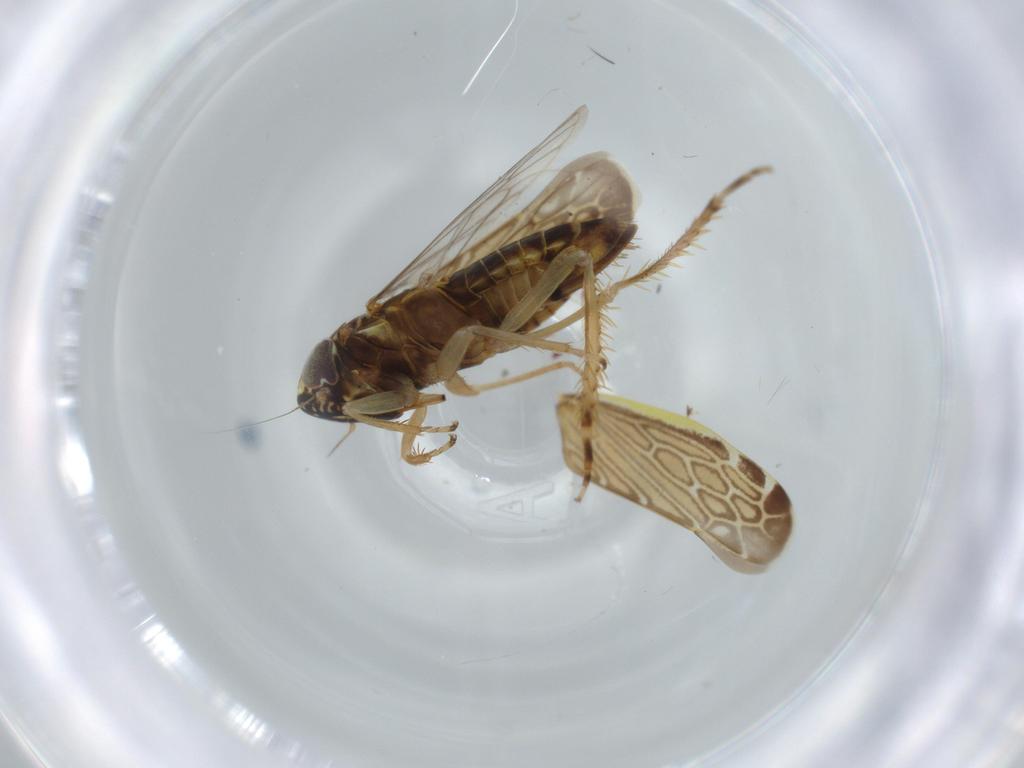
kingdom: Animalia
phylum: Arthropoda
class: Insecta
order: Hemiptera
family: Cicadellidae
